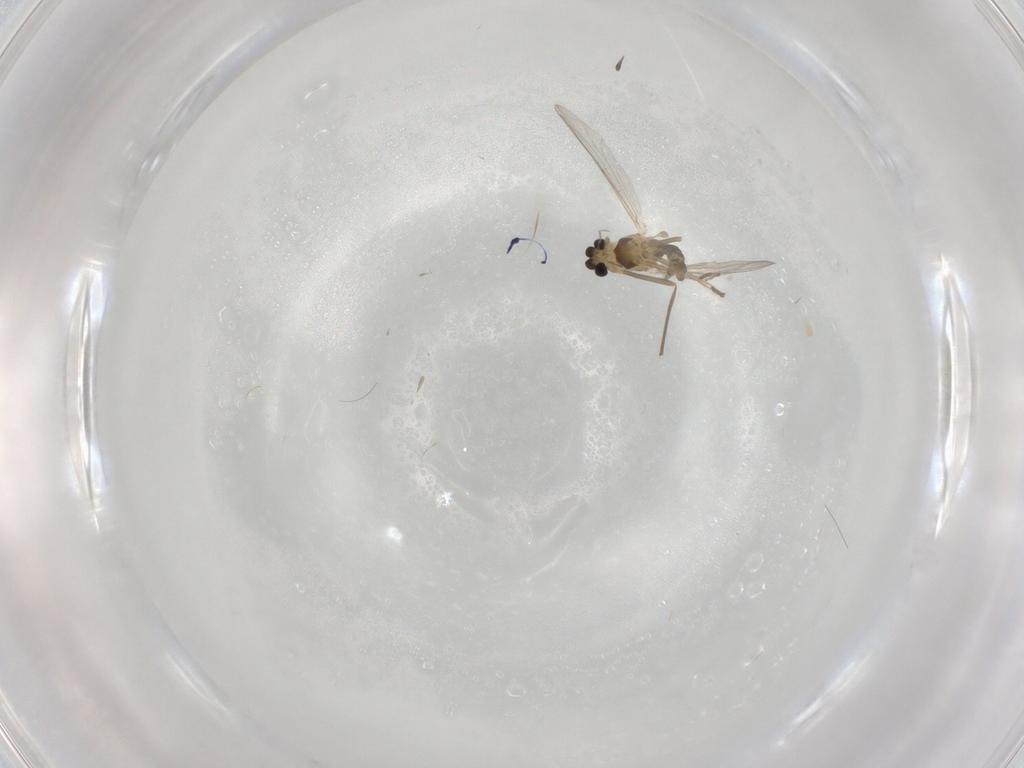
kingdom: Animalia
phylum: Arthropoda
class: Insecta
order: Diptera
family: Chironomidae
